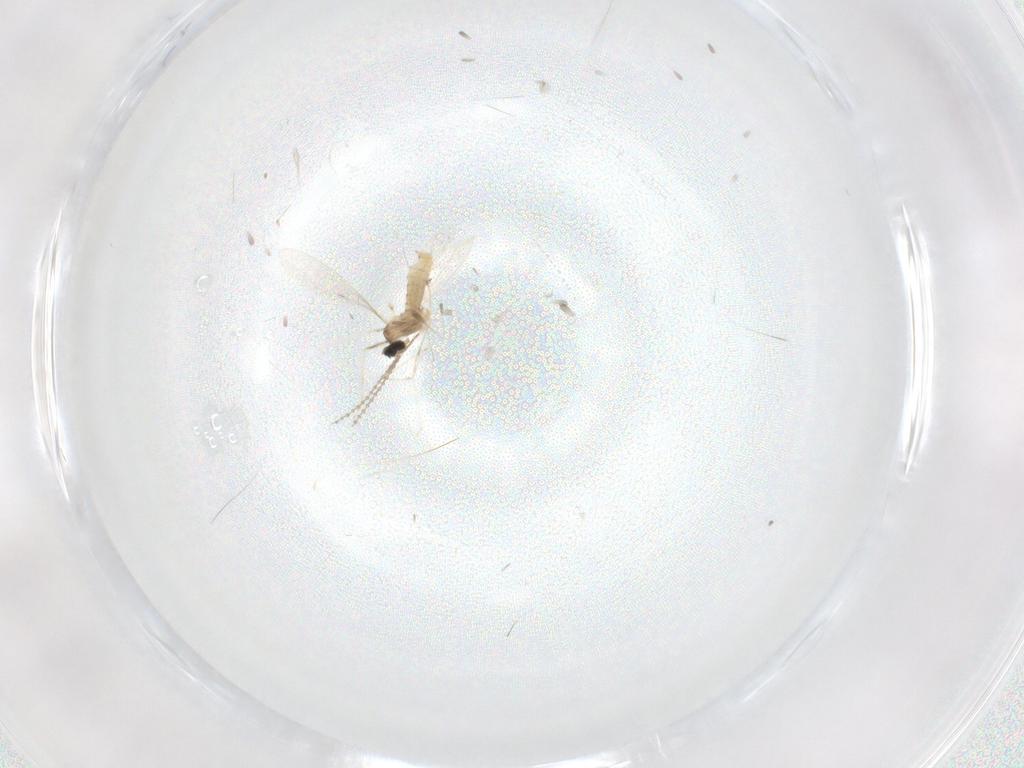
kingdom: Animalia
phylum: Arthropoda
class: Insecta
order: Diptera
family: Cecidomyiidae
